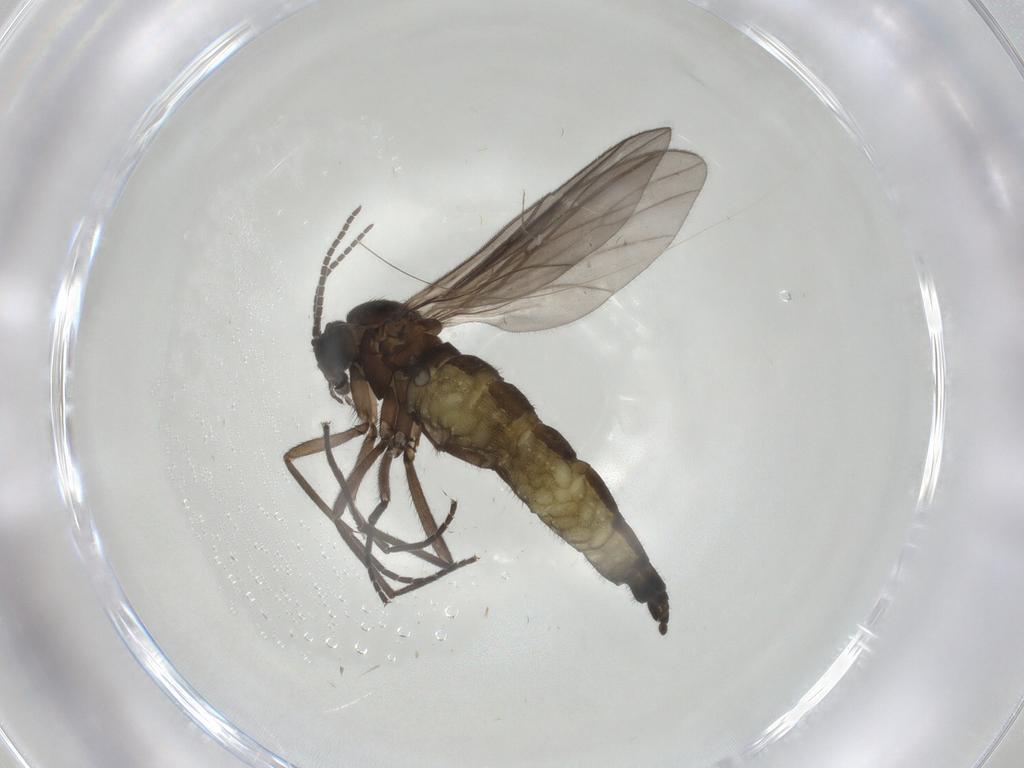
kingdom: Animalia
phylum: Arthropoda
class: Insecta
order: Diptera
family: Sciaridae
